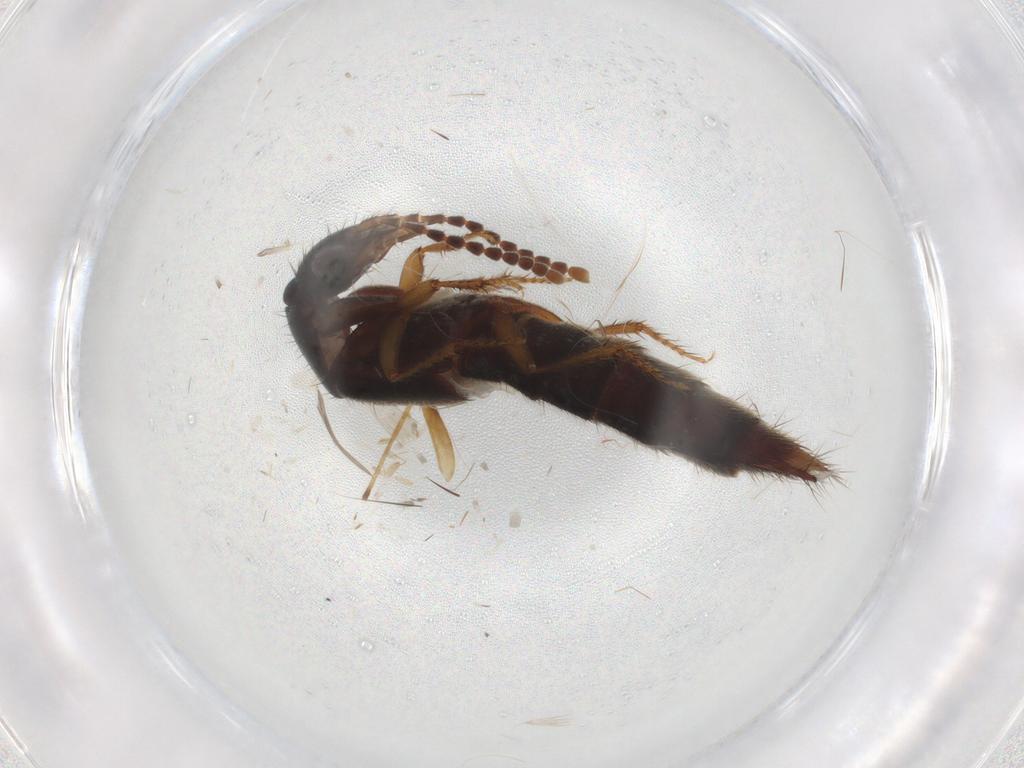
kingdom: Animalia
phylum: Arthropoda
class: Insecta
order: Coleoptera
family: Staphylinidae
